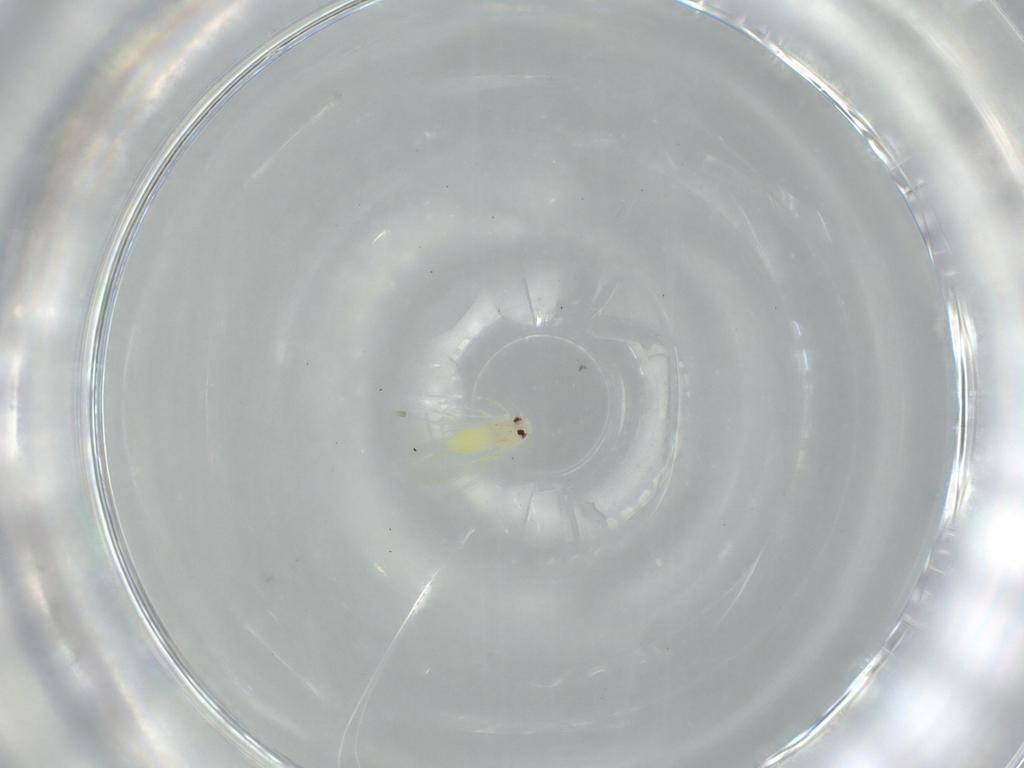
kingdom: Animalia
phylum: Arthropoda
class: Insecta
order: Hemiptera
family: Aleyrodidae
